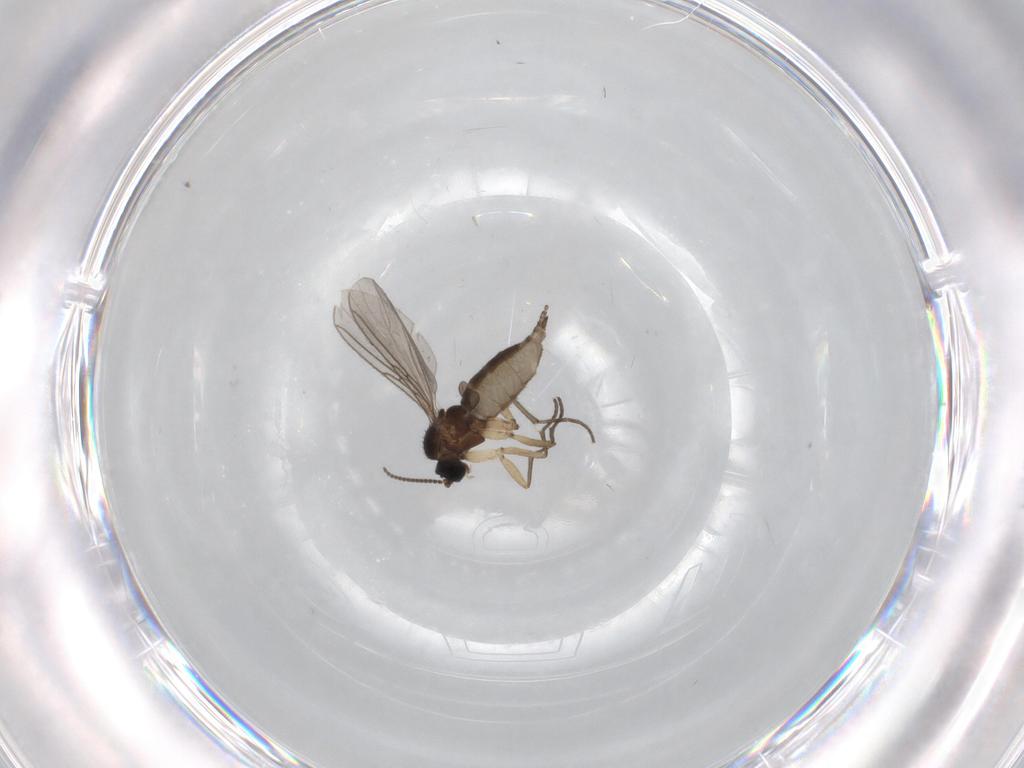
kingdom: Animalia
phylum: Arthropoda
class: Insecta
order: Diptera
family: Sciaridae
